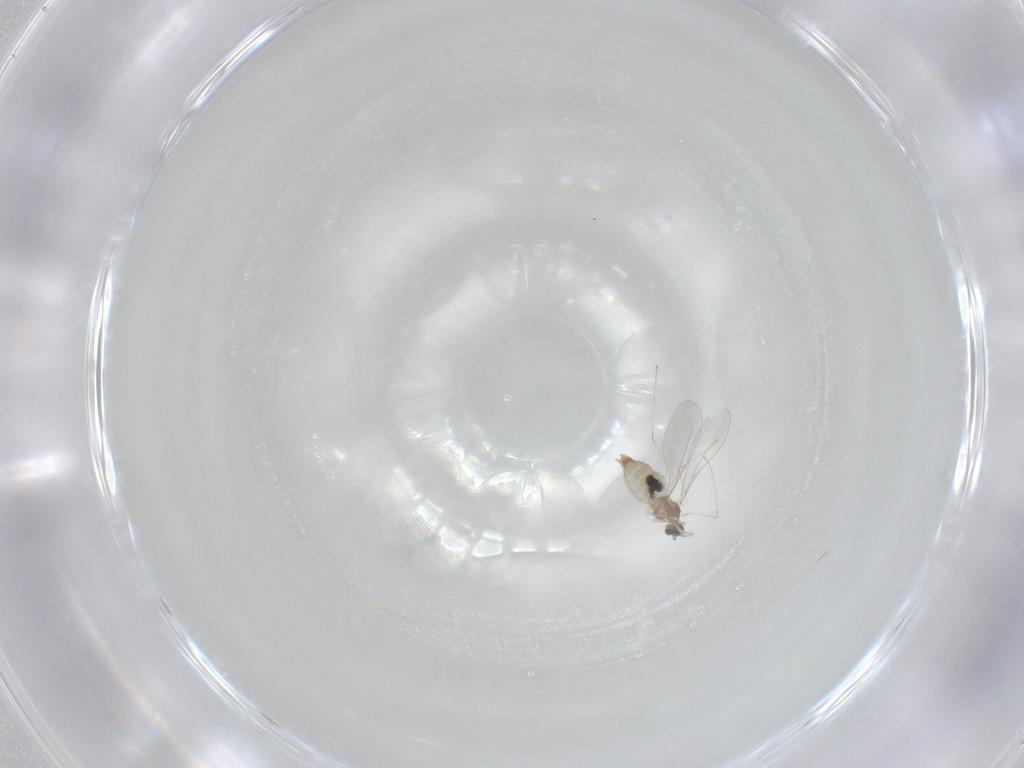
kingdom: Animalia
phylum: Arthropoda
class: Insecta
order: Diptera
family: Cecidomyiidae
